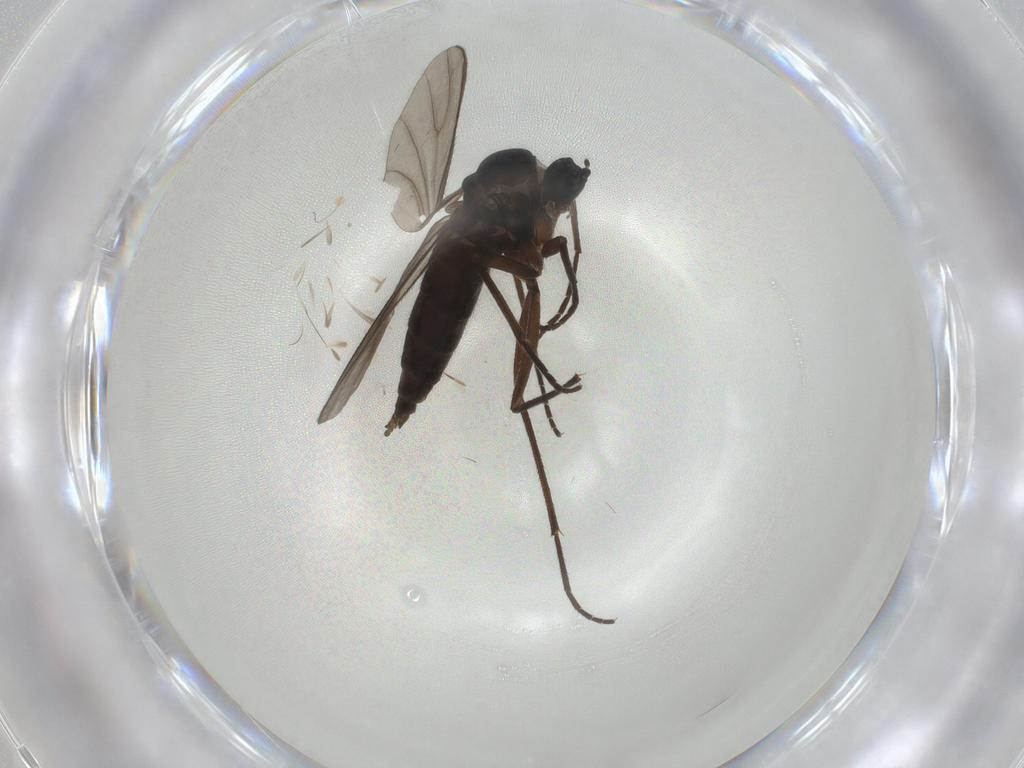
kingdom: Animalia
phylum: Arthropoda
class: Insecta
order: Diptera
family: Sciaridae
